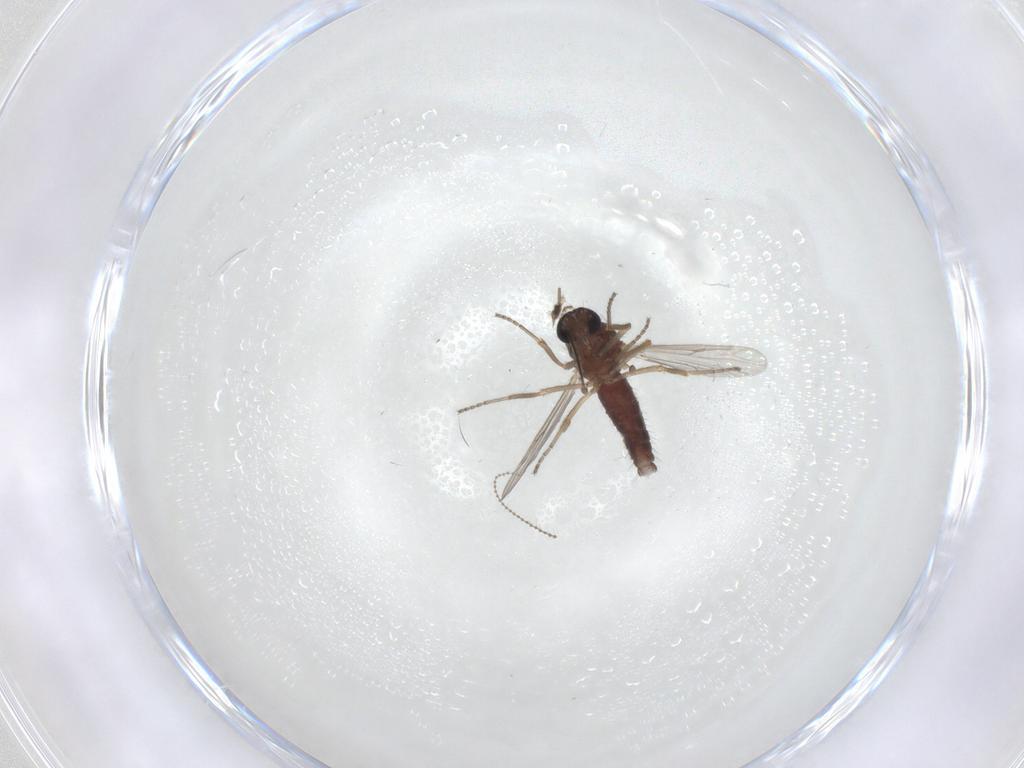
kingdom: Animalia
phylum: Arthropoda
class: Insecta
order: Diptera
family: Ceratopogonidae
